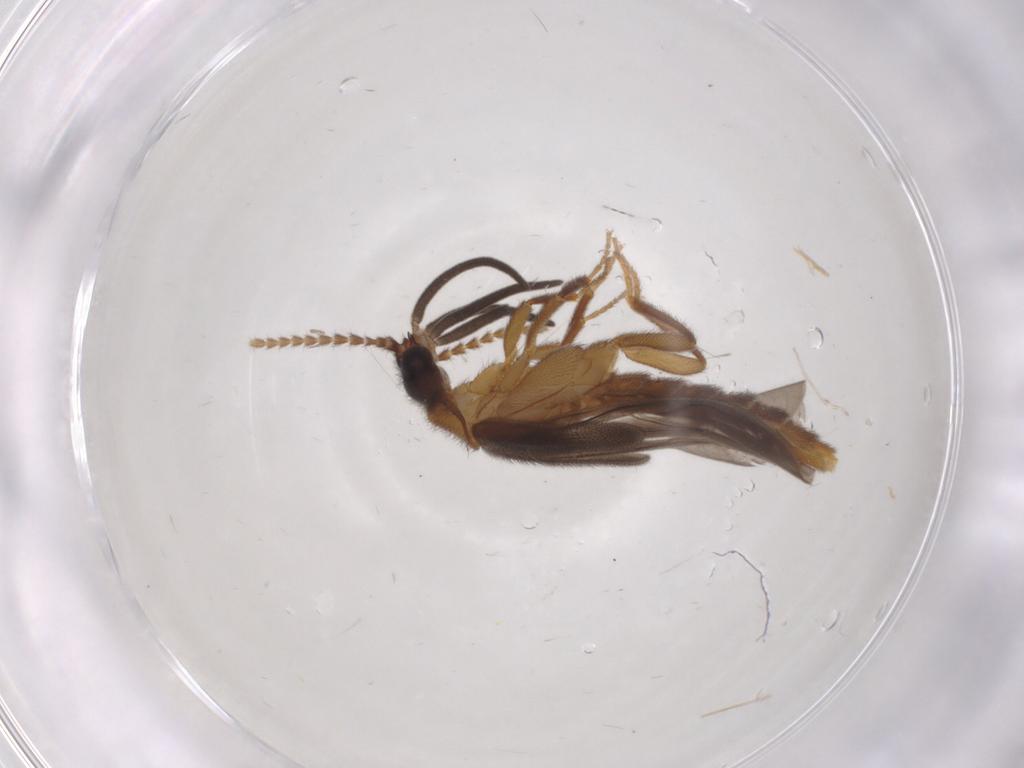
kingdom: Animalia
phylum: Arthropoda
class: Insecta
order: Coleoptera
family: Omethidae
